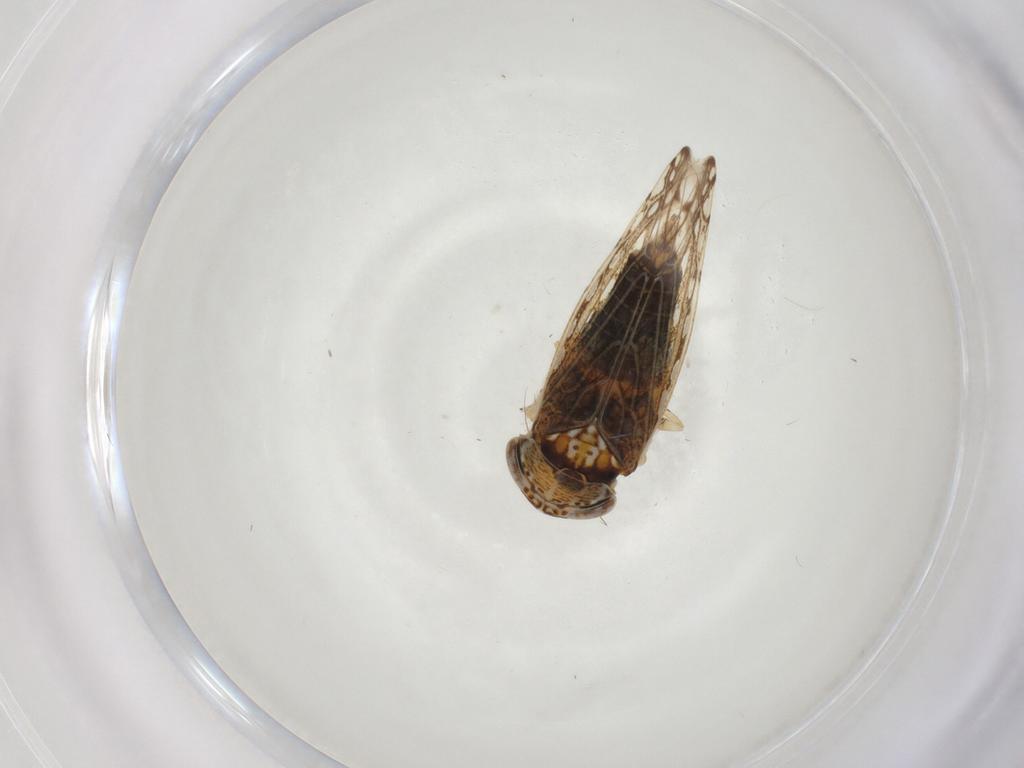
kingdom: Animalia
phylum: Arthropoda
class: Insecta
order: Hemiptera
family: Cicadellidae
